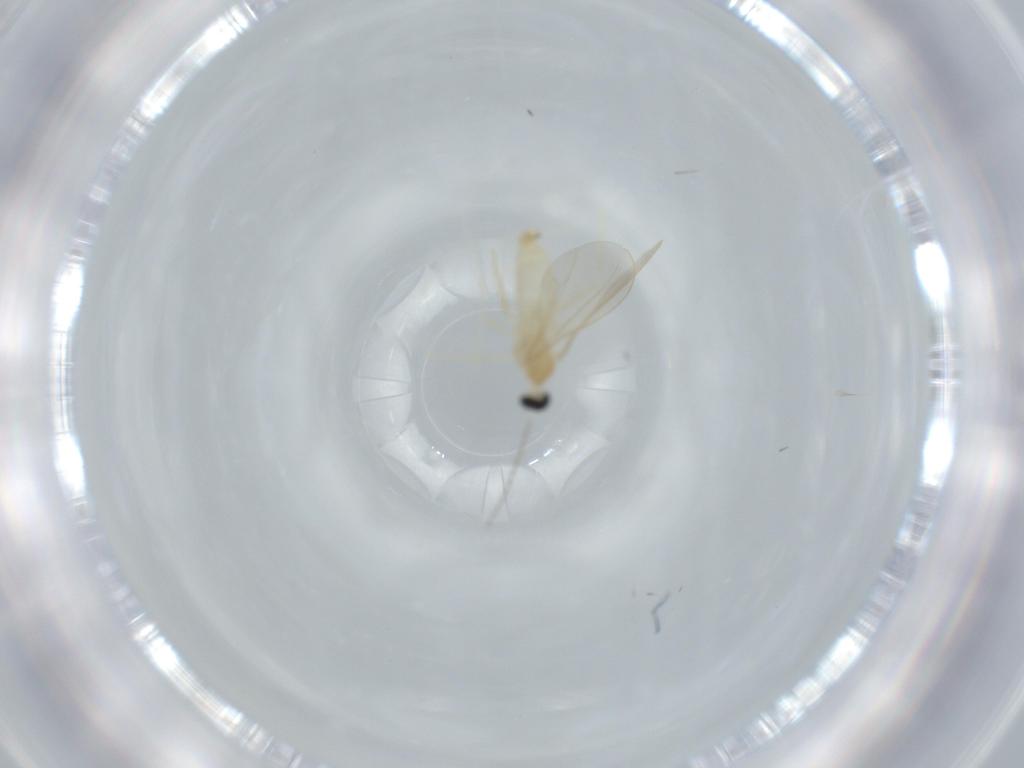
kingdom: Animalia
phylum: Arthropoda
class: Insecta
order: Diptera
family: Cecidomyiidae
